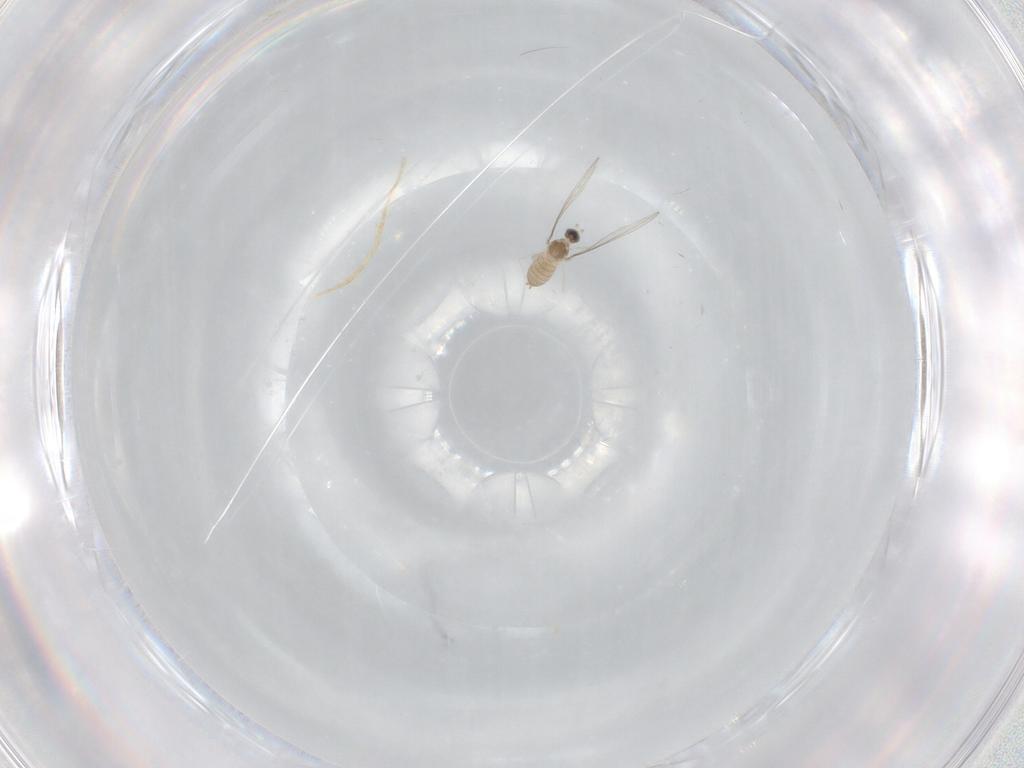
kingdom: Animalia
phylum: Arthropoda
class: Insecta
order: Diptera
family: Cecidomyiidae
